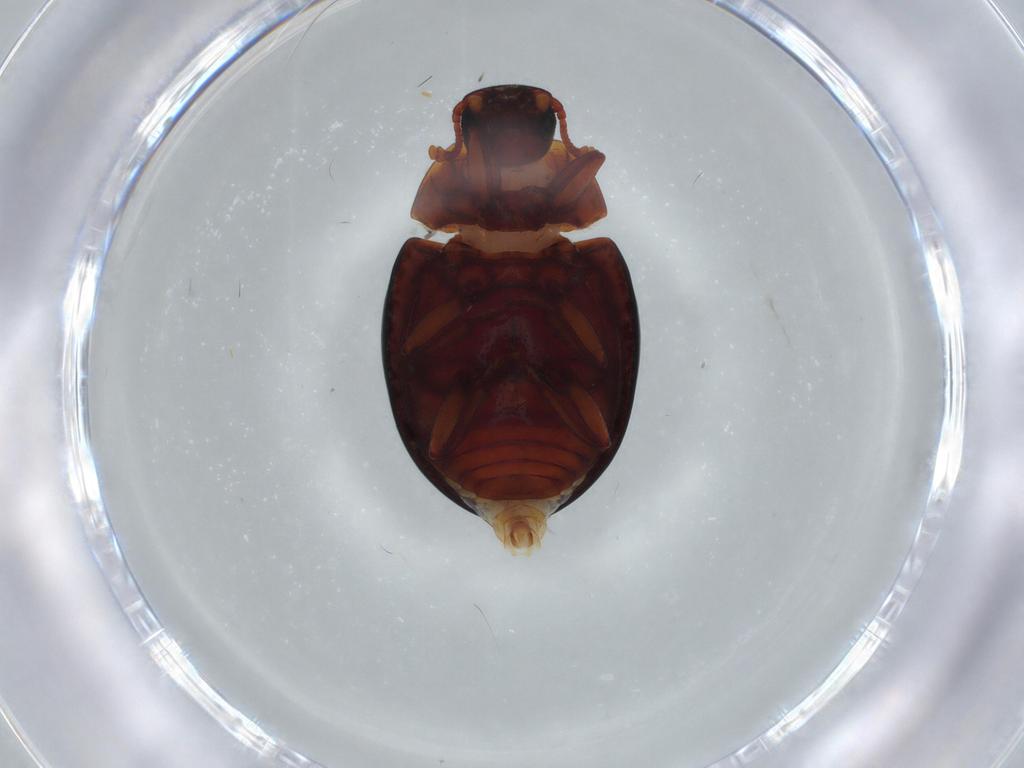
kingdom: Animalia
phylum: Arthropoda
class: Insecta
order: Coleoptera
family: Zopheridae
